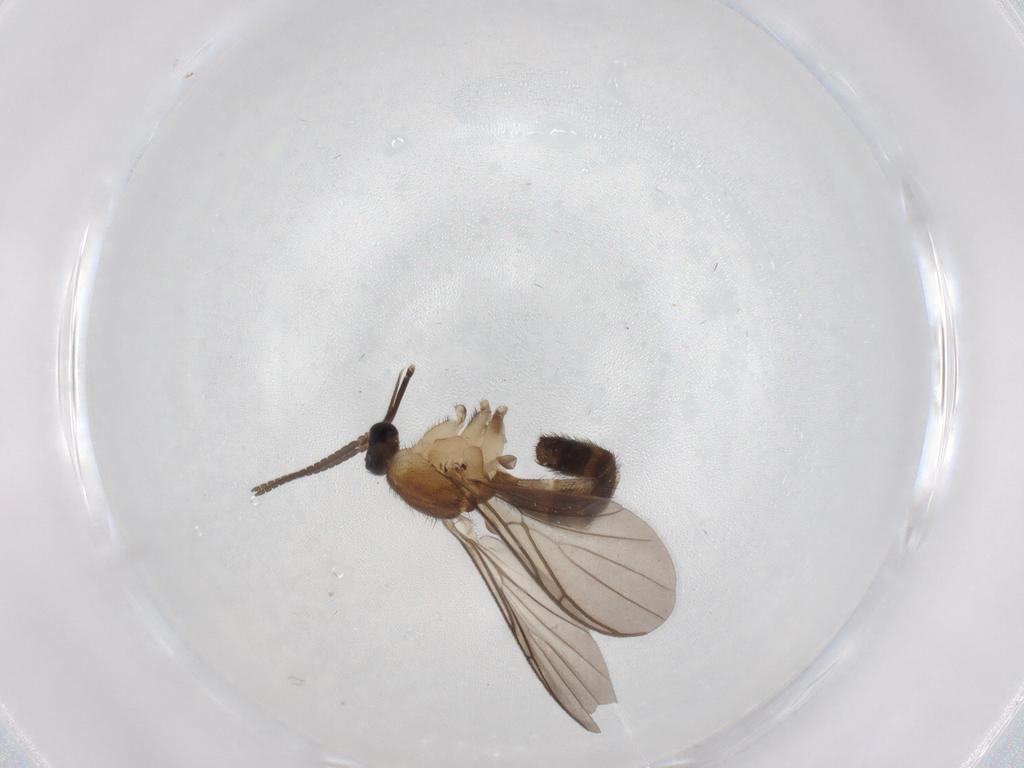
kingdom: Animalia
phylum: Arthropoda
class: Insecta
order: Diptera
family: Keroplatidae
